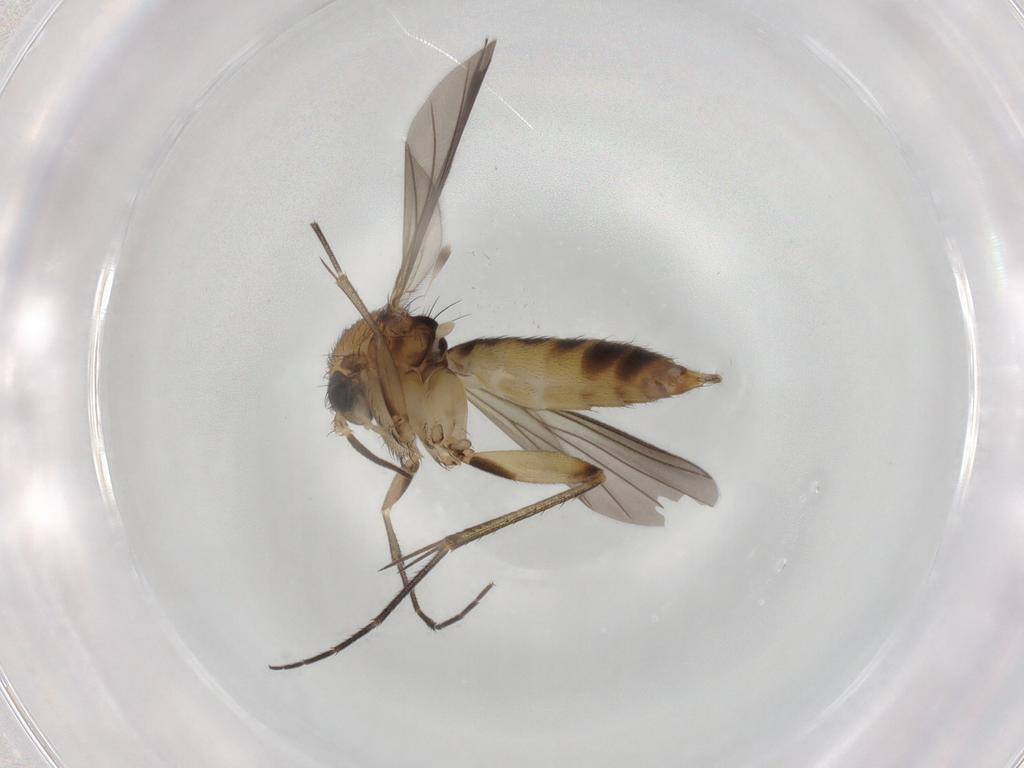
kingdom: Animalia
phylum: Arthropoda
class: Insecta
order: Diptera
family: Mycetophilidae
